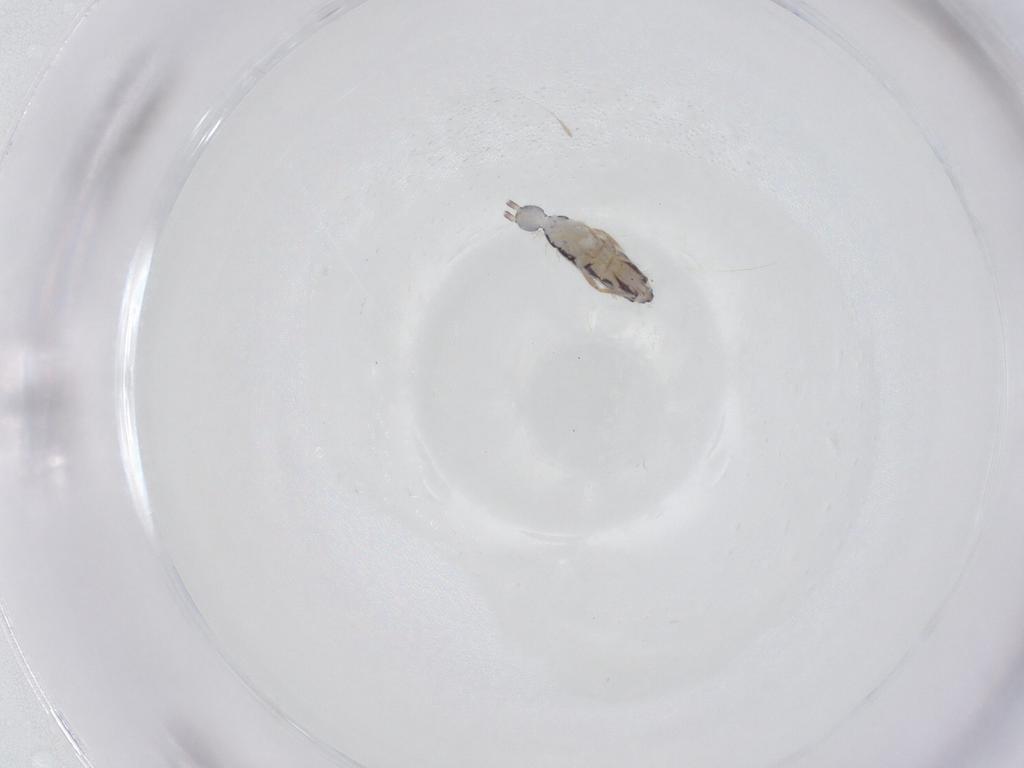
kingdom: Animalia
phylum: Arthropoda
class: Collembola
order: Entomobryomorpha
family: Entomobryidae
